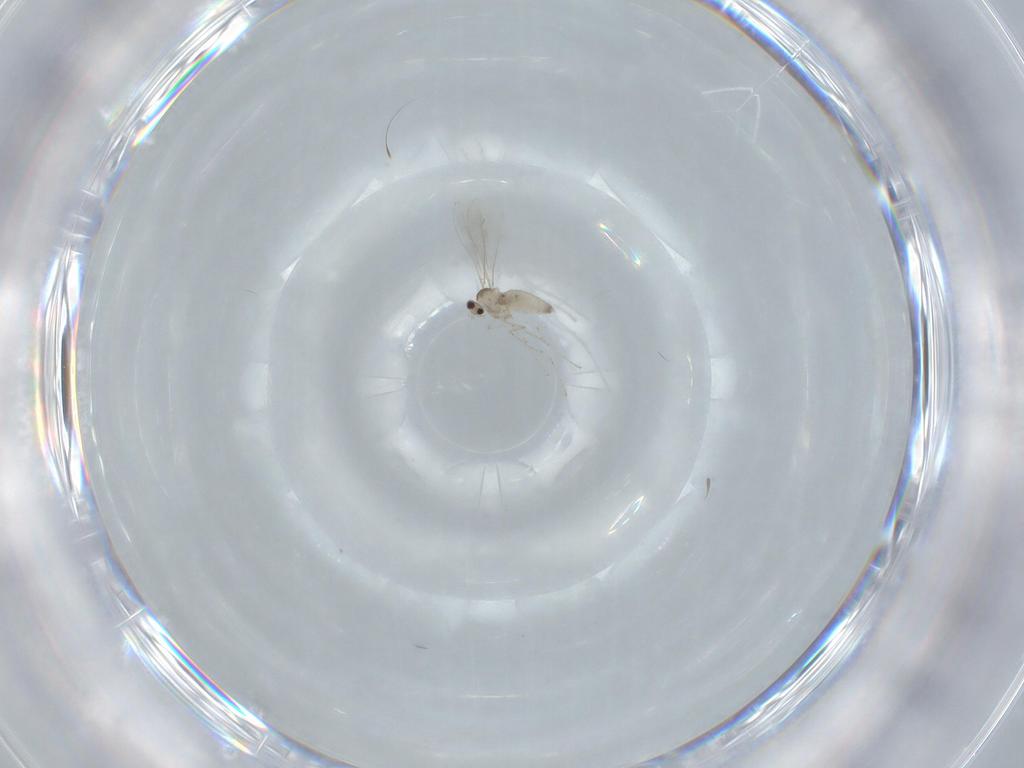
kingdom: Animalia
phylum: Arthropoda
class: Insecta
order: Diptera
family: Cecidomyiidae
